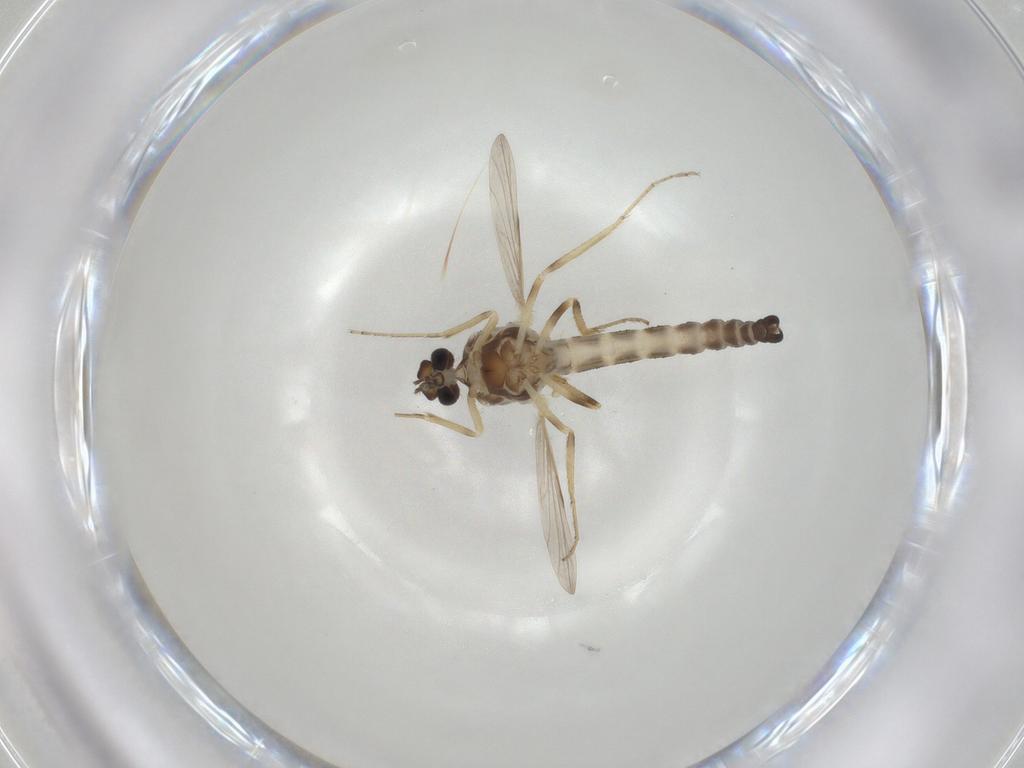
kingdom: Animalia
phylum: Arthropoda
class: Insecta
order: Diptera
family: Ceratopogonidae
